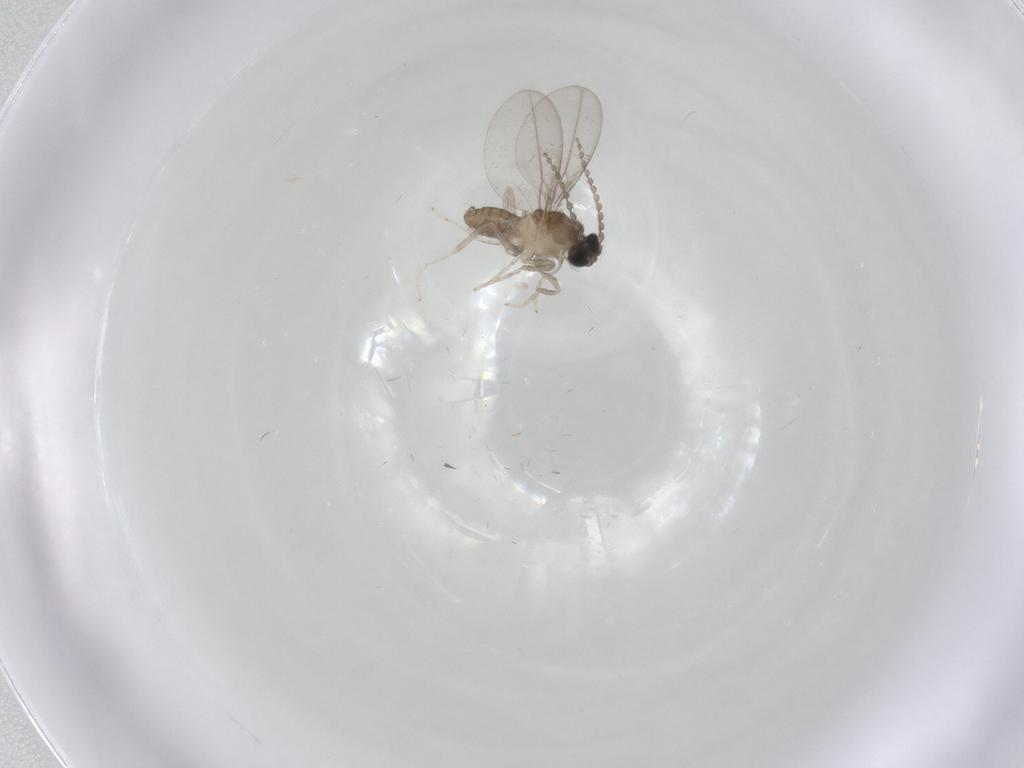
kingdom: Animalia
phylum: Arthropoda
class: Insecta
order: Diptera
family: Cecidomyiidae
